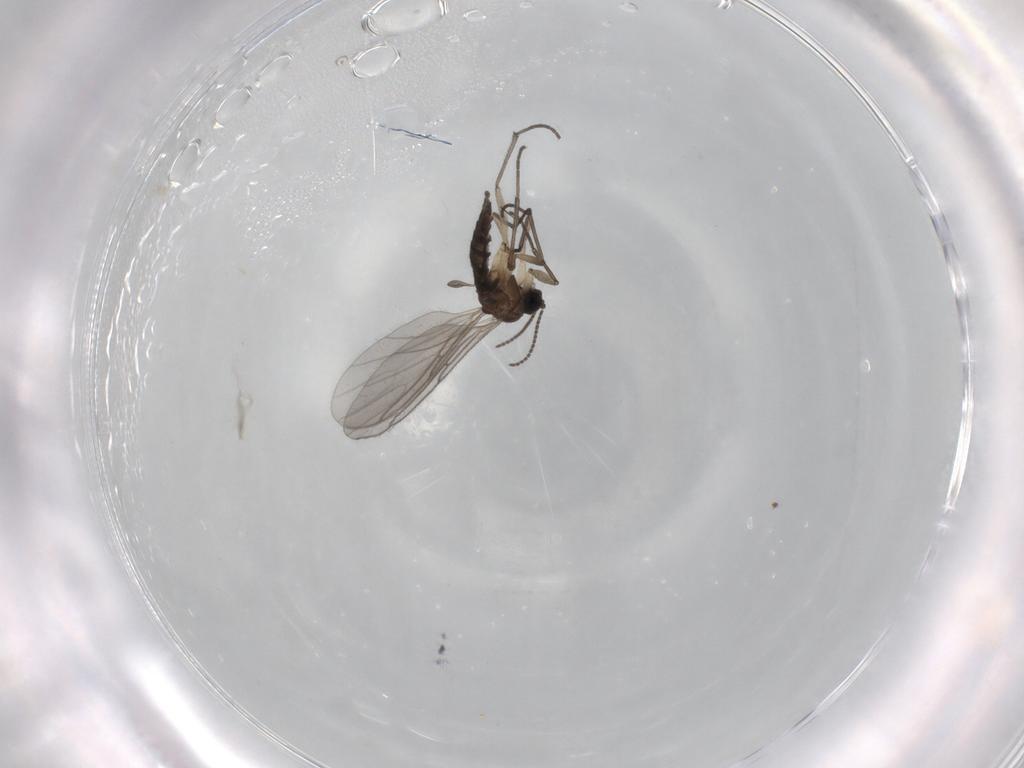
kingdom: Animalia
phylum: Arthropoda
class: Insecta
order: Diptera
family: Sciaridae
